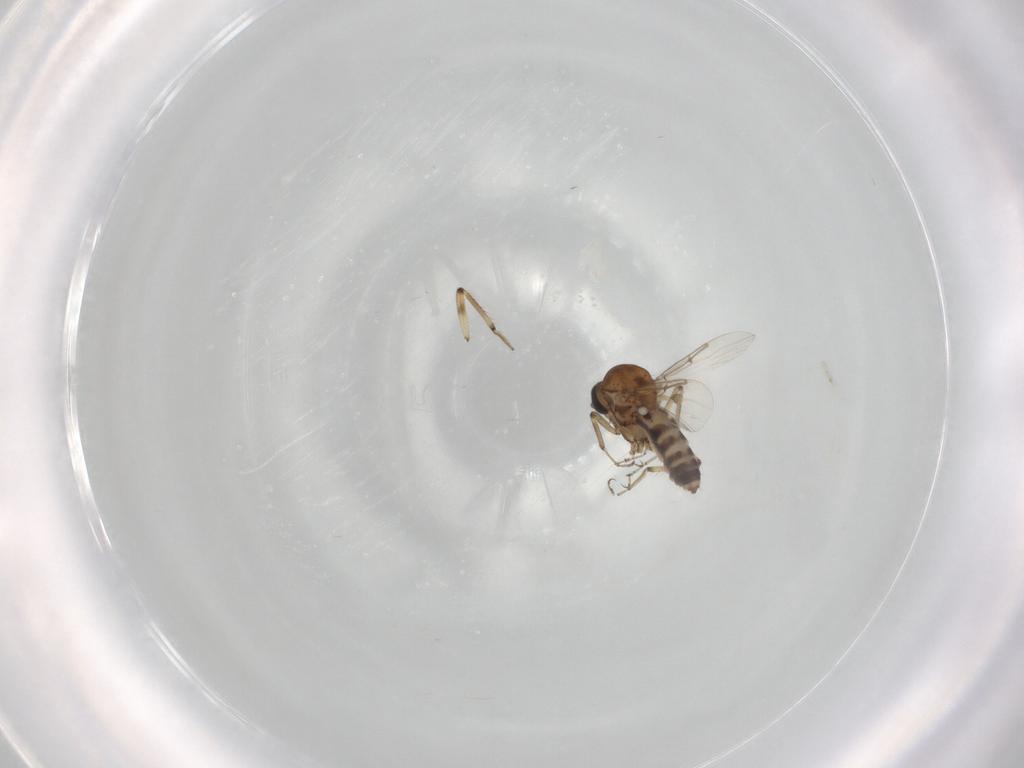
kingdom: Animalia
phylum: Arthropoda
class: Insecta
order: Diptera
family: Ceratopogonidae
